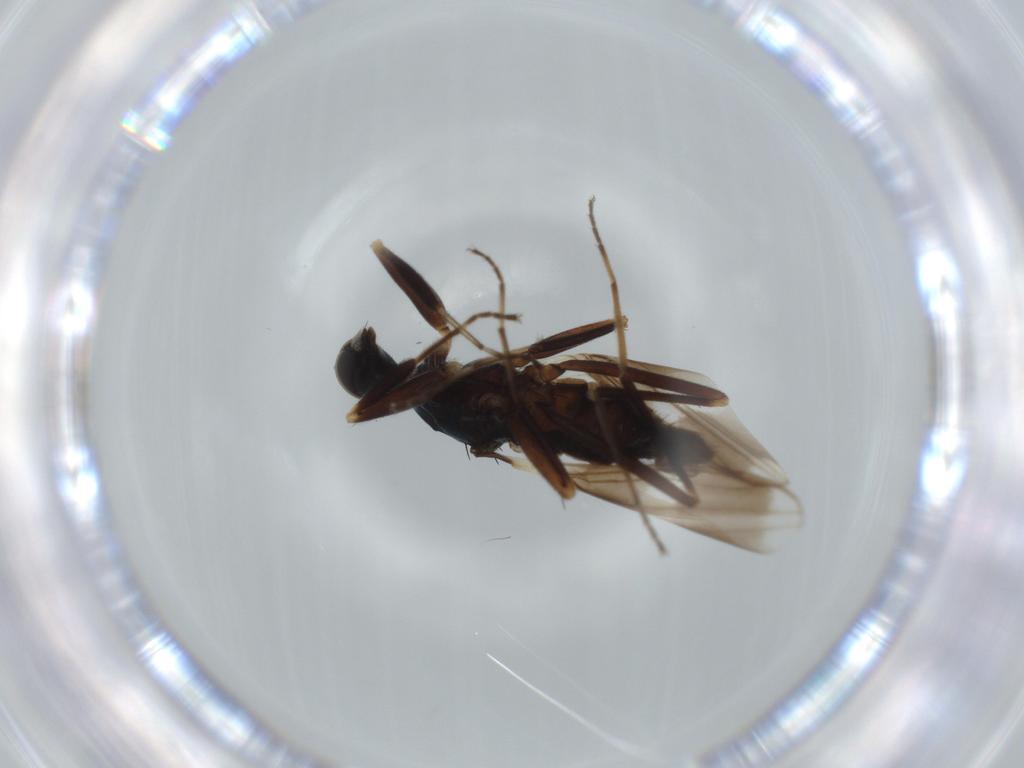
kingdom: Animalia
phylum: Arthropoda
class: Insecta
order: Diptera
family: Hybotidae
